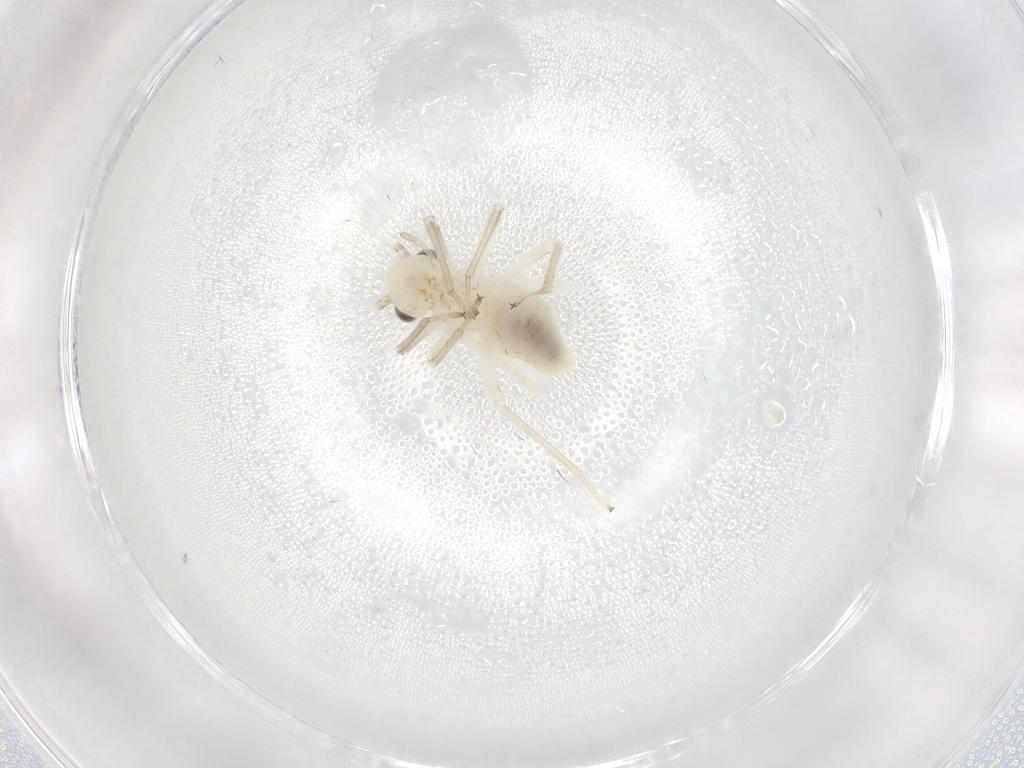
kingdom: Animalia
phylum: Arthropoda
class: Insecta
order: Psocodea
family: Caeciliusidae
